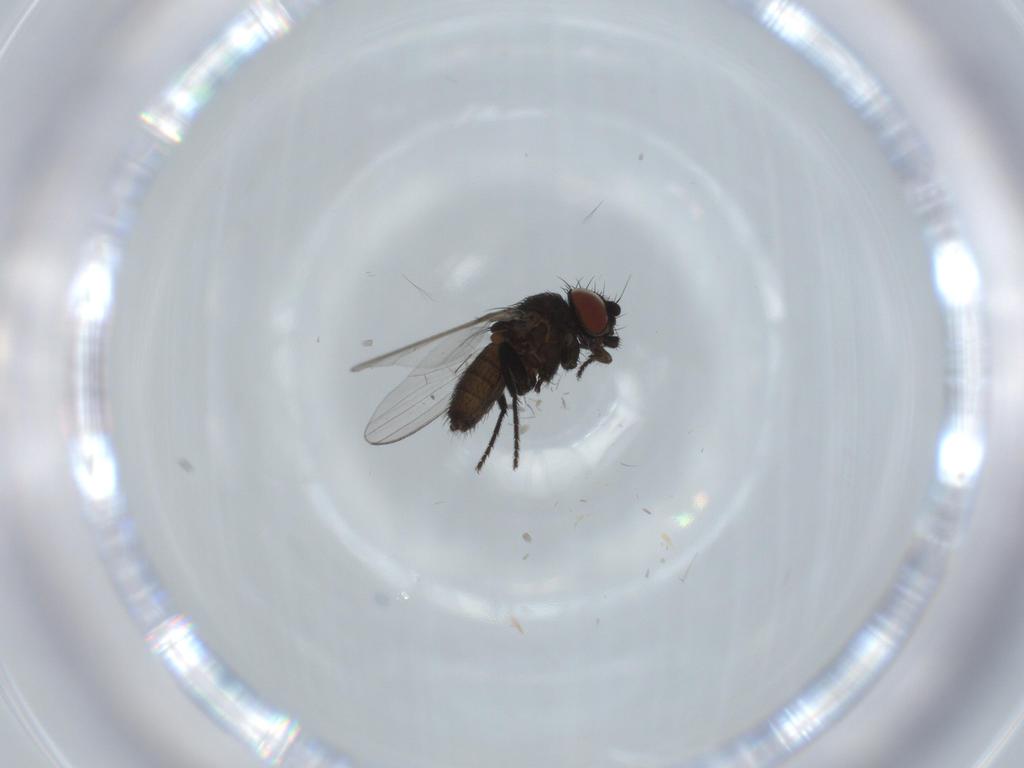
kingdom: Animalia
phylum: Arthropoda
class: Insecta
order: Diptera
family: Milichiidae
